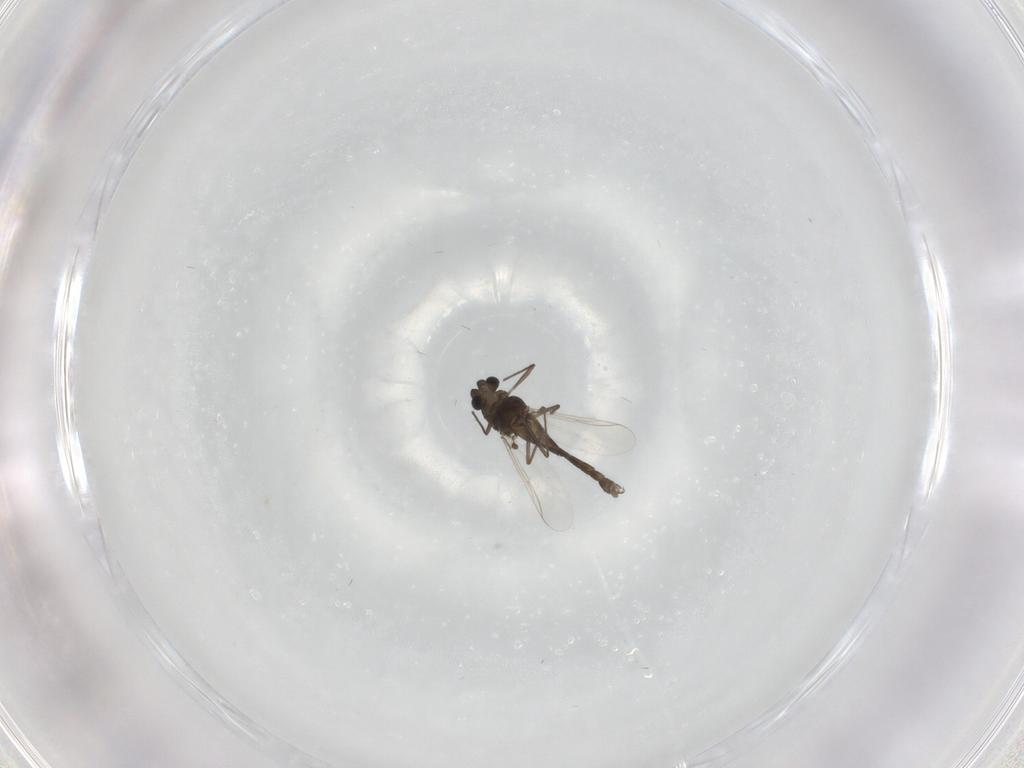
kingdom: Animalia
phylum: Arthropoda
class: Insecta
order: Diptera
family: Chironomidae
